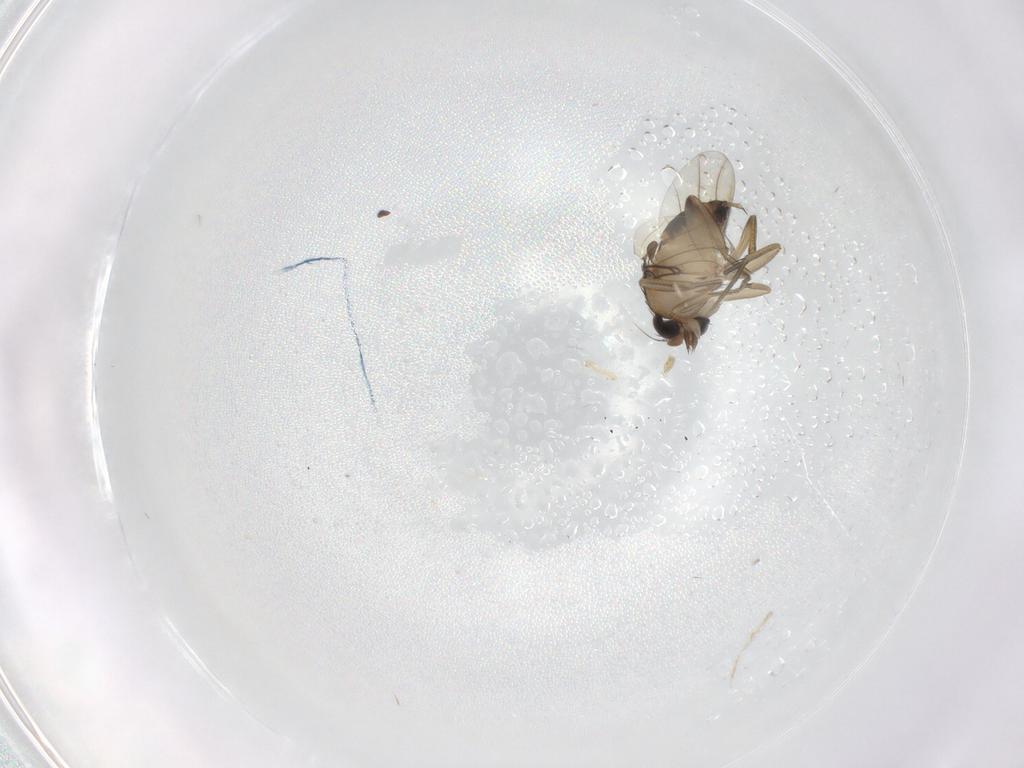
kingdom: Animalia
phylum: Arthropoda
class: Insecta
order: Diptera
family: Phoridae
